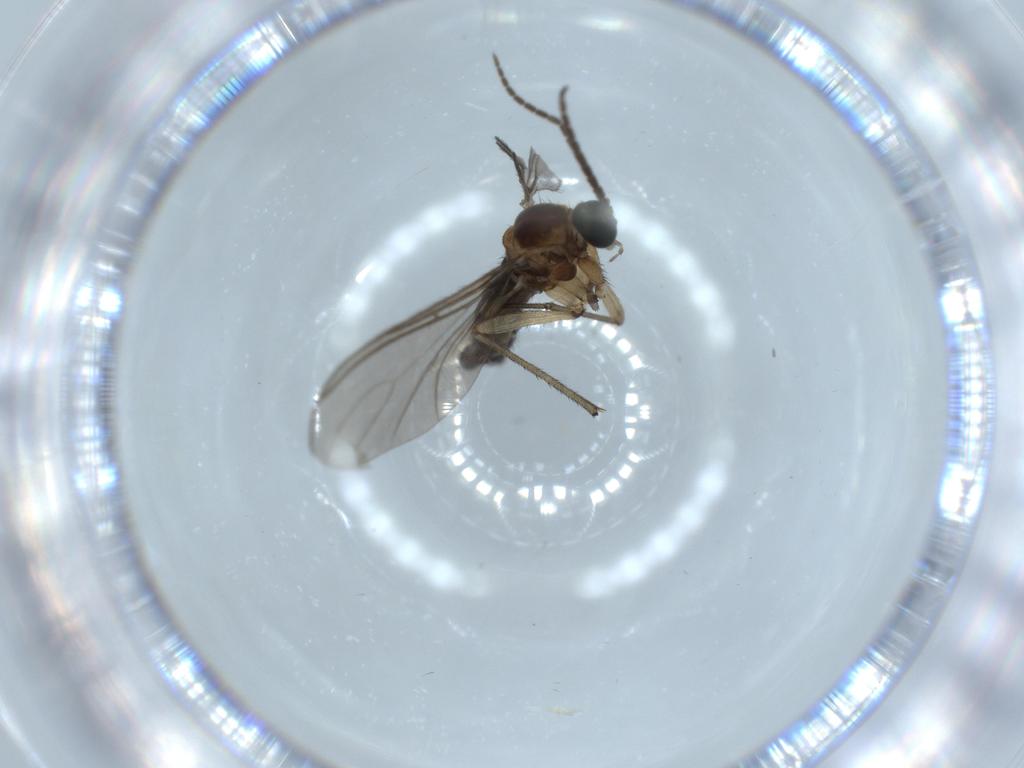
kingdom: Animalia
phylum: Arthropoda
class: Insecta
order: Diptera
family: Sciaridae
